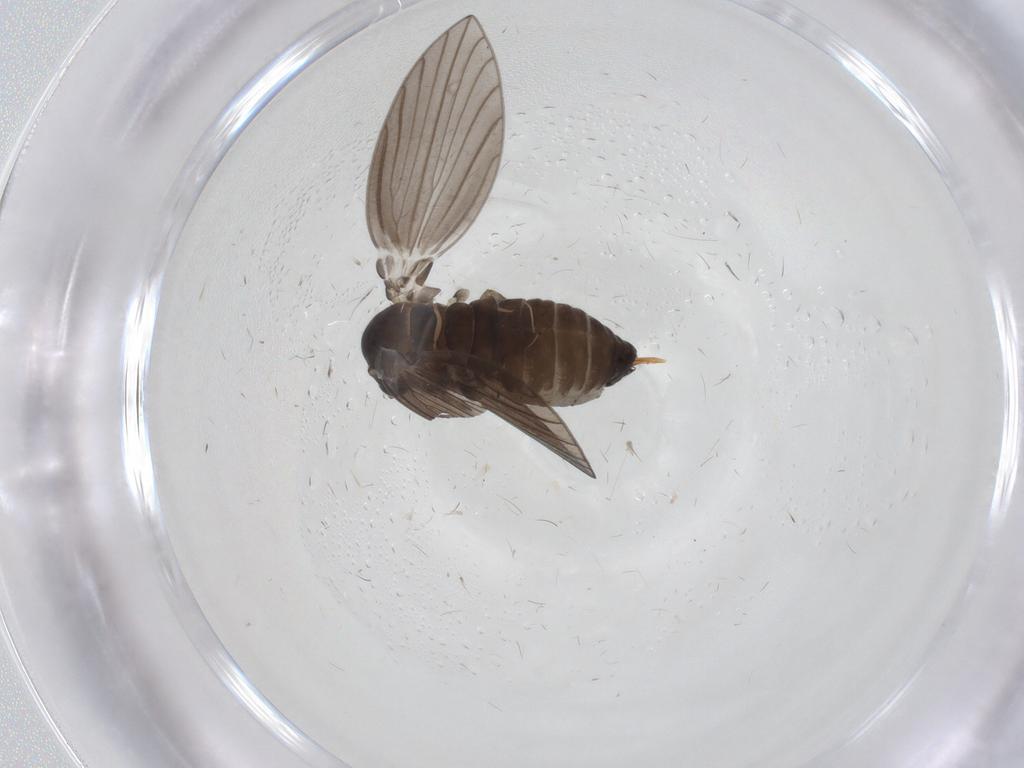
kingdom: Animalia
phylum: Arthropoda
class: Insecta
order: Diptera
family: Psychodidae
